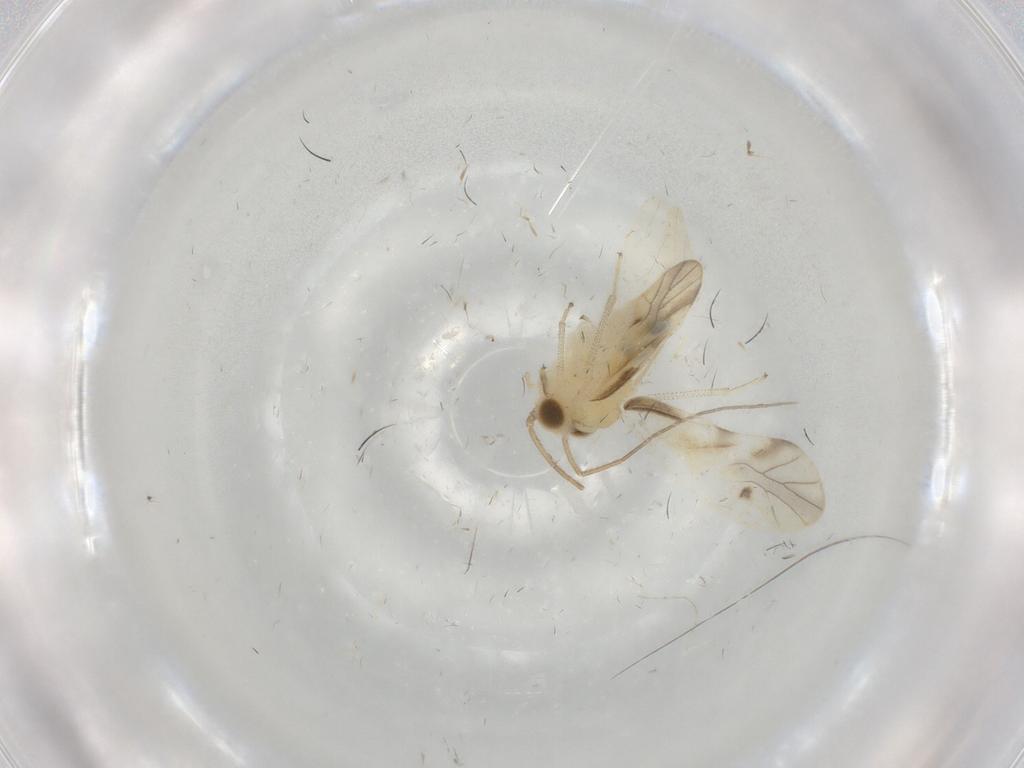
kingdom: Animalia
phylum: Arthropoda
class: Insecta
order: Psocodea
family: Caeciliusidae
